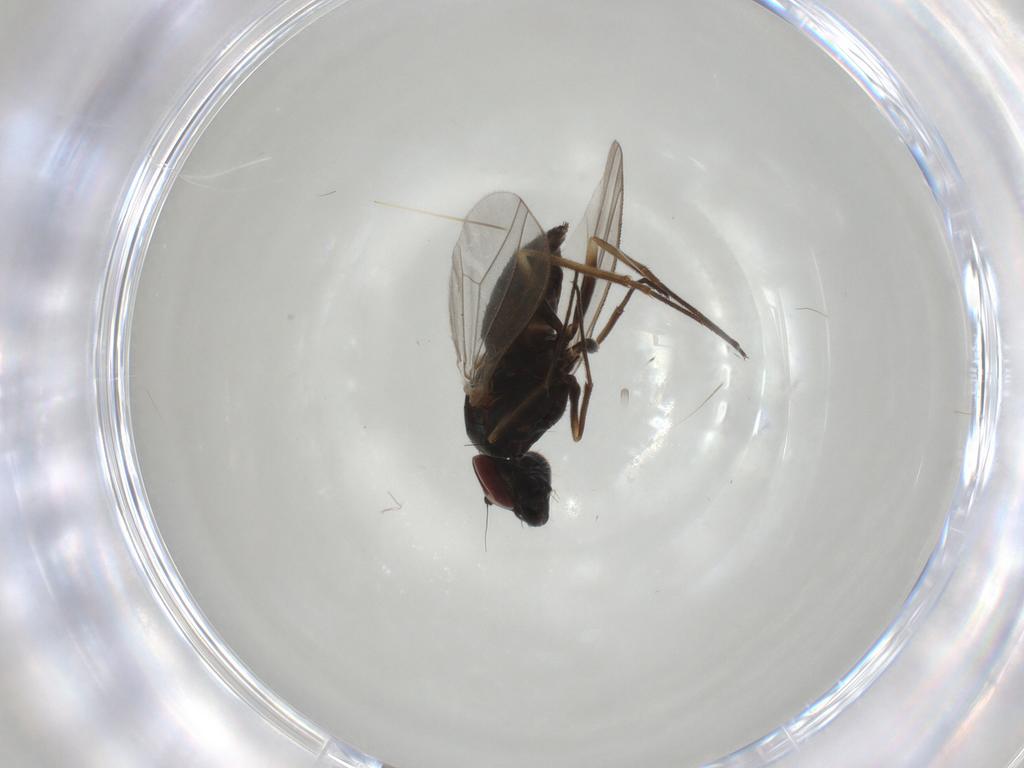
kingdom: Animalia
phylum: Arthropoda
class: Insecta
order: Diptera
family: Dolichopodidae
